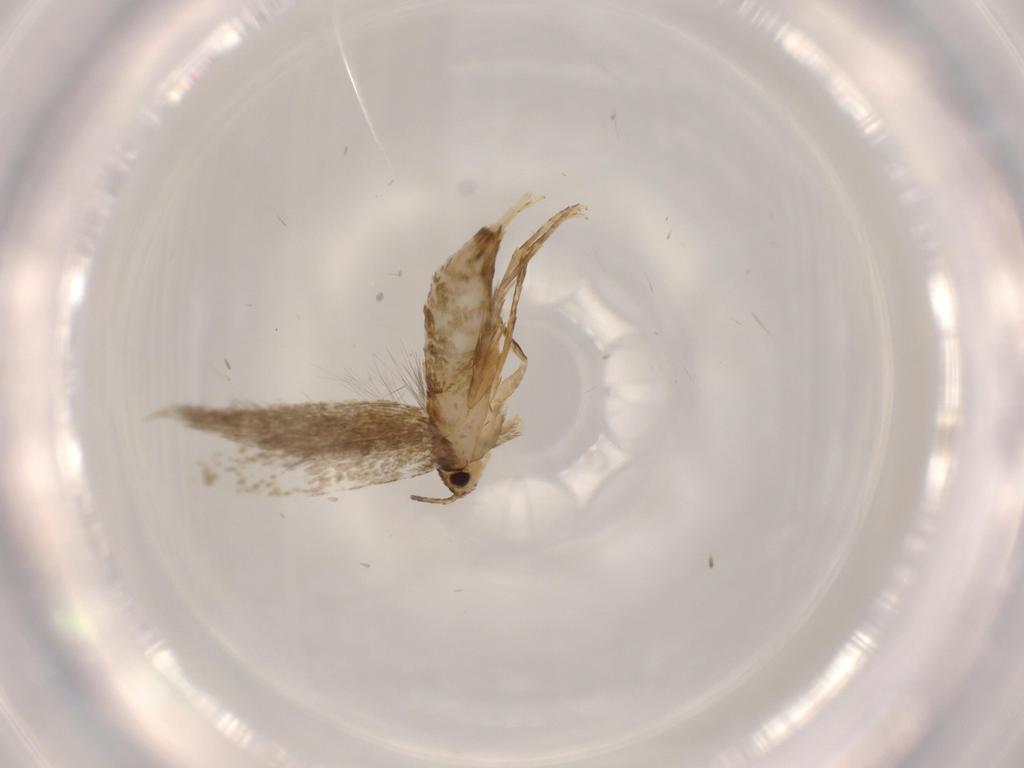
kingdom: Animalia
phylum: Arthropoda
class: Insecta
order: Lepidoptera
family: Tineidae
